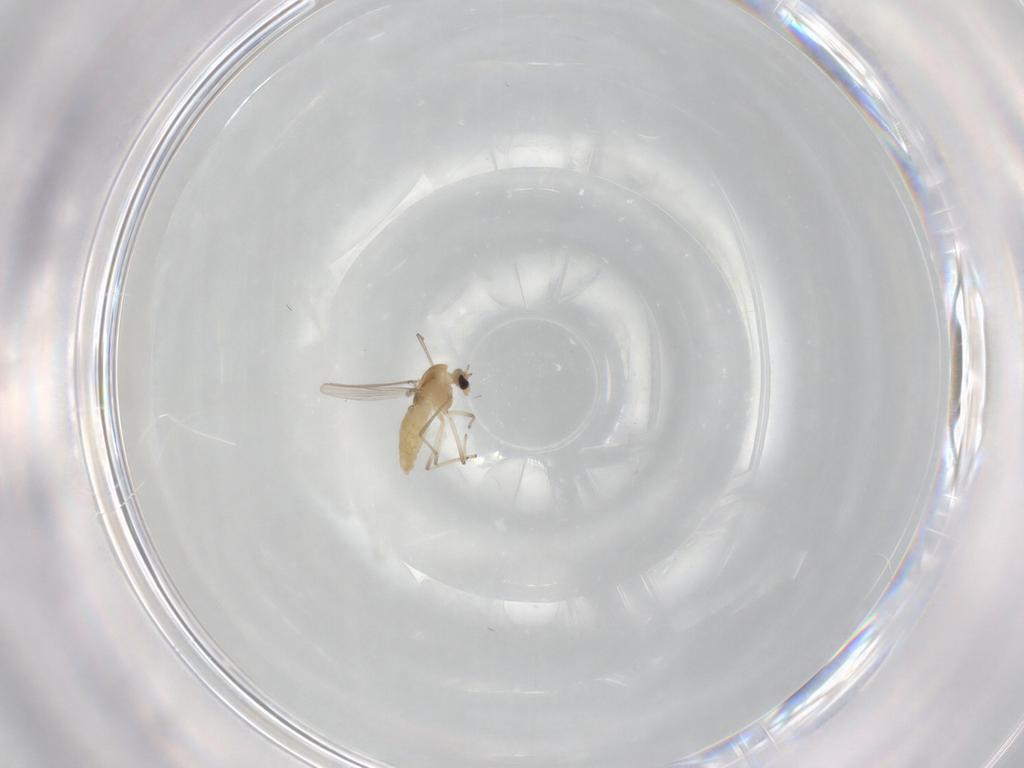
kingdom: Animalia
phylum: Arthropoda
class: Insecta
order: Diptera
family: Chironomidae
